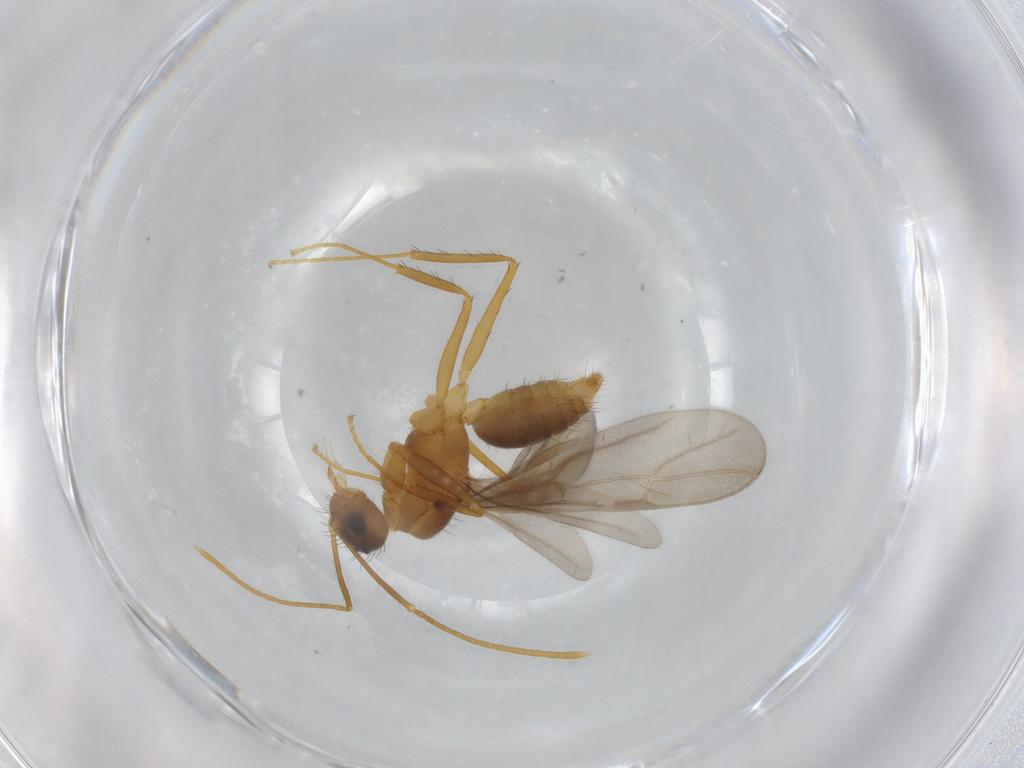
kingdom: Animalia
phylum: Arthropoda
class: Insecta
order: Hymenoptera
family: Formicidae
